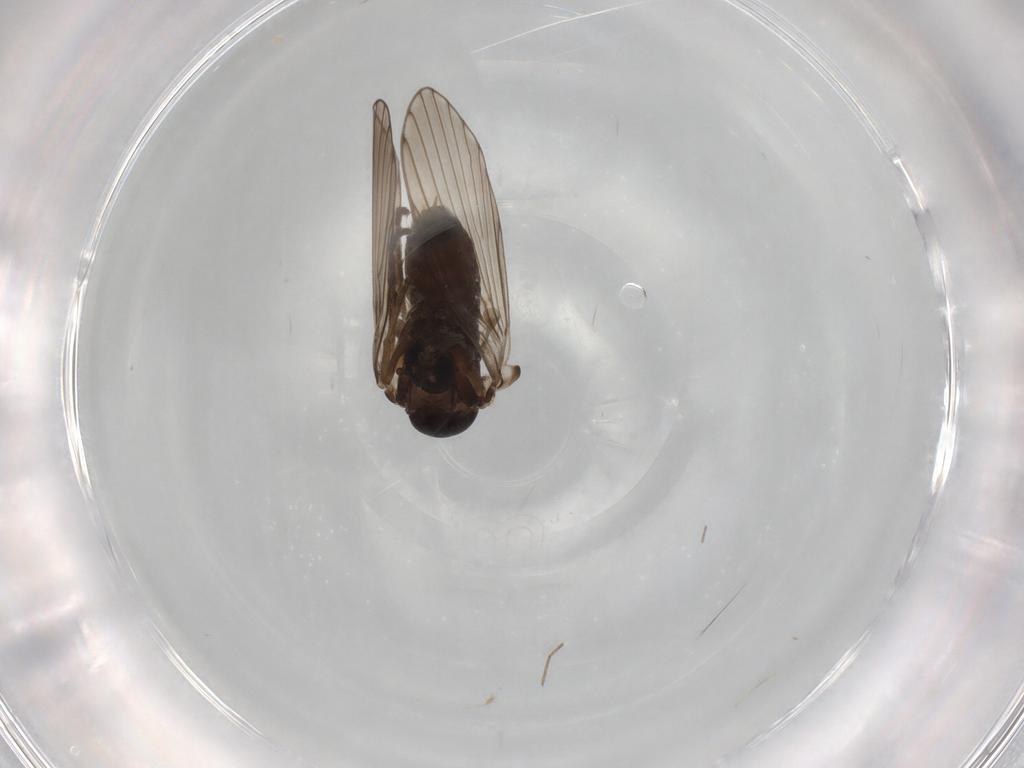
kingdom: Animalia
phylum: Arthropoda
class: Insecta
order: Diptera
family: Psychodidae
